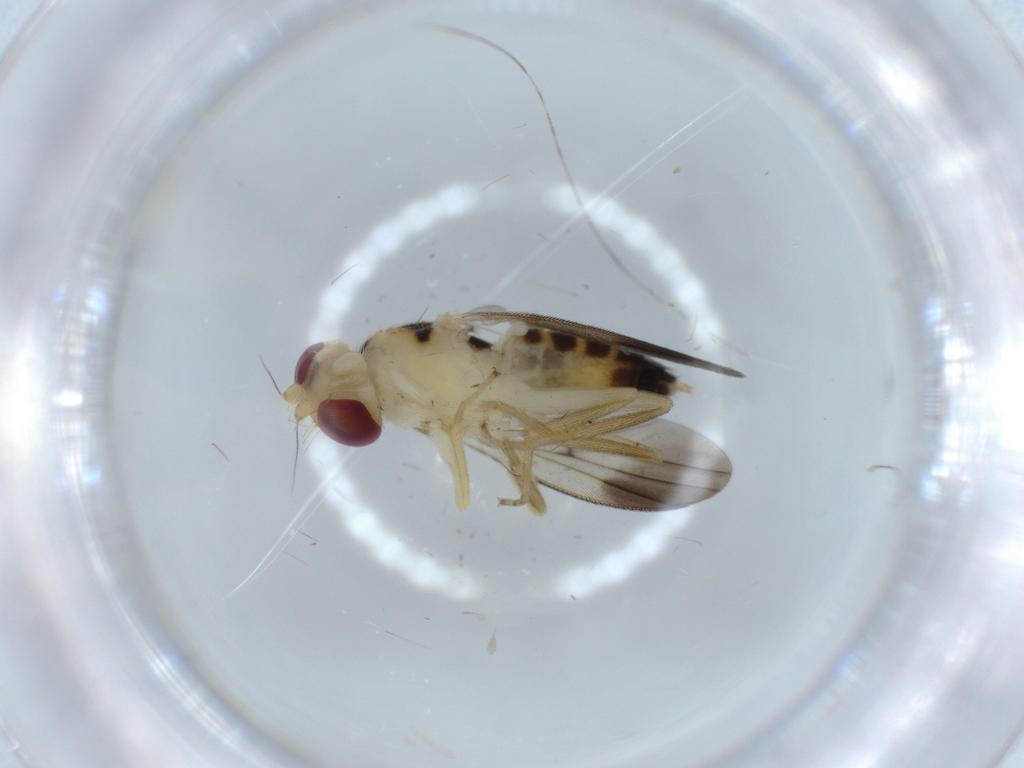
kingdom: Animalia
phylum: Arthropoda
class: Insecta
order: Diptera
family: Clusiidae
